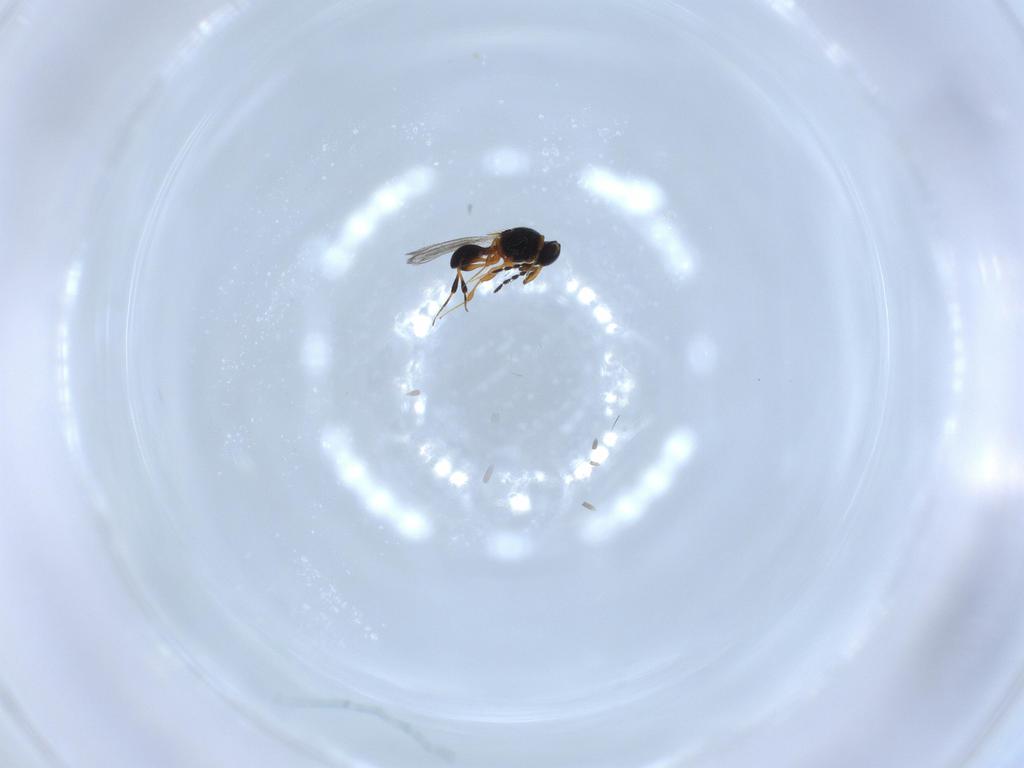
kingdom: Animalia
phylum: Arthropoda
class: Insecta
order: Hymenoptera
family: Platygastridae
